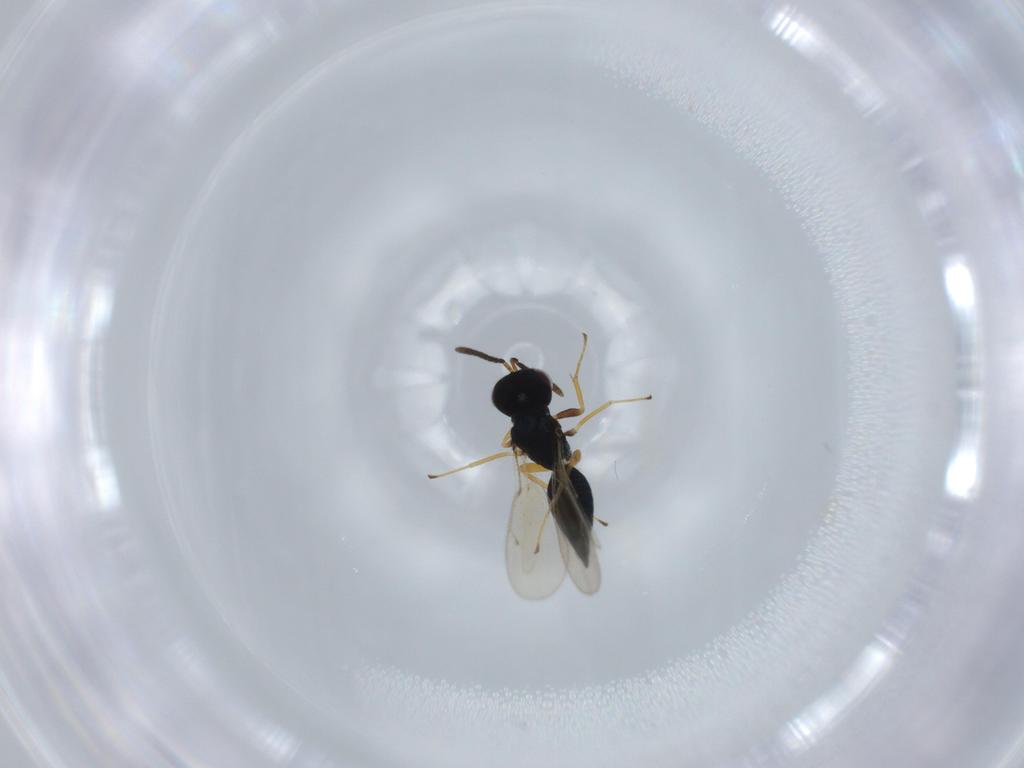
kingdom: Animalia
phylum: Arthropoda
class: Insecta
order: Hymenoptera
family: Pteromalidae
